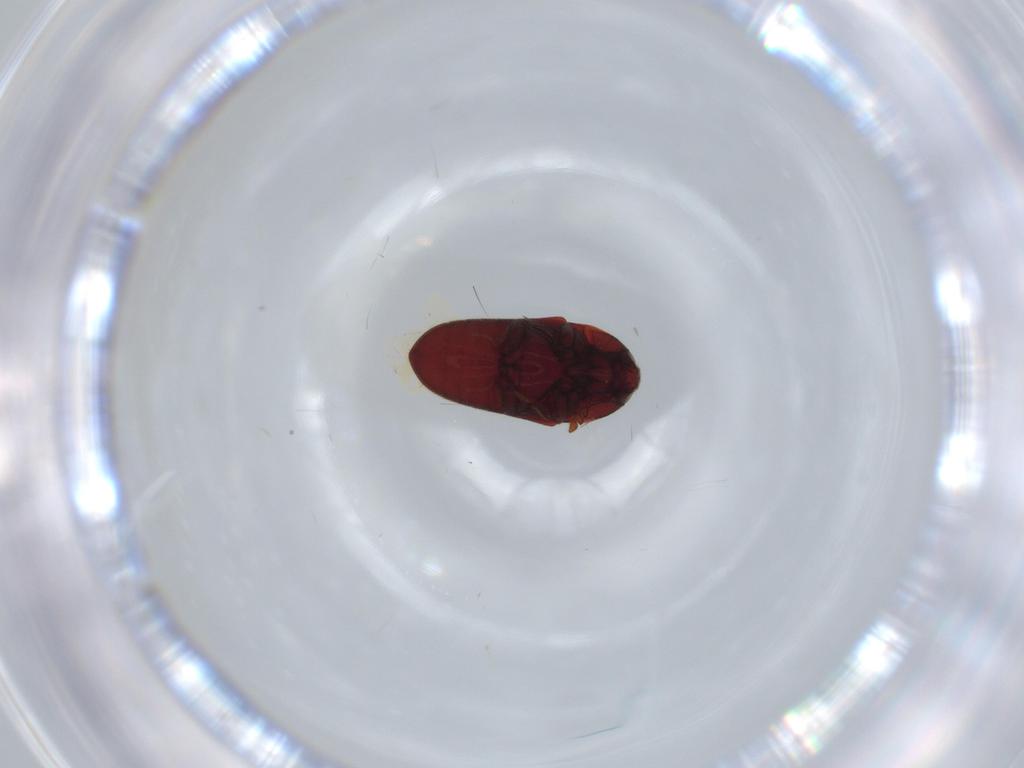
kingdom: Animalia
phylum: Arthropoda
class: Insecta
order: Coleoptera
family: Throscidae
